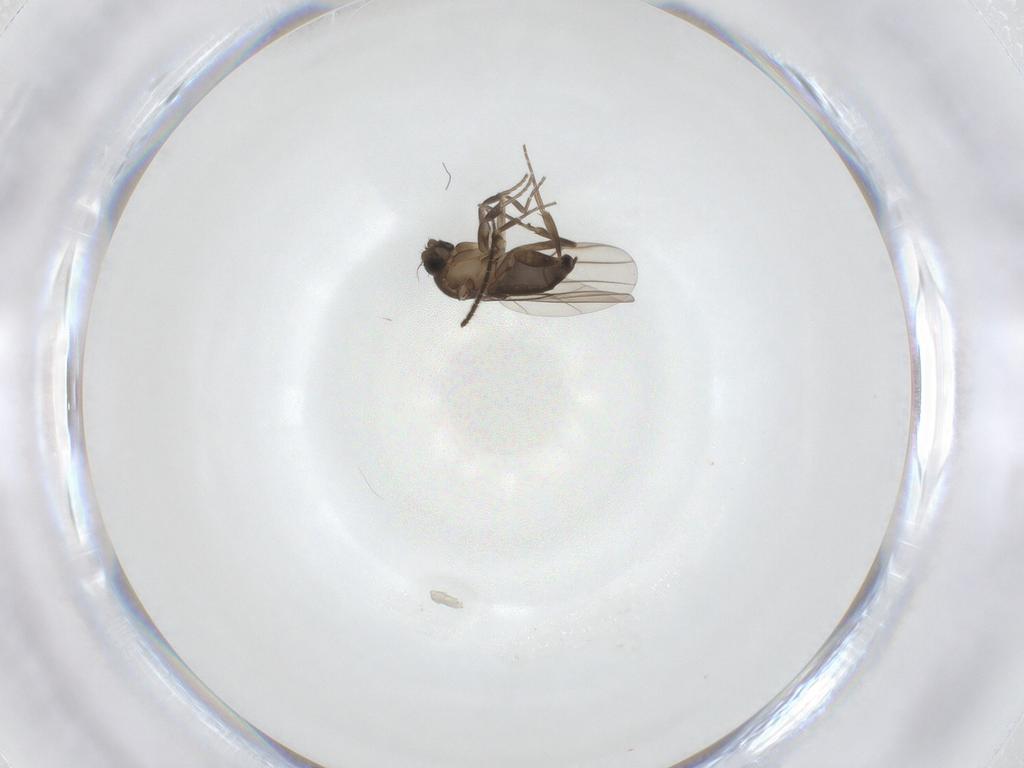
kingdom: Animalia
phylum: Arthropoda
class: Insecta
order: Diptera
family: Phoridae
